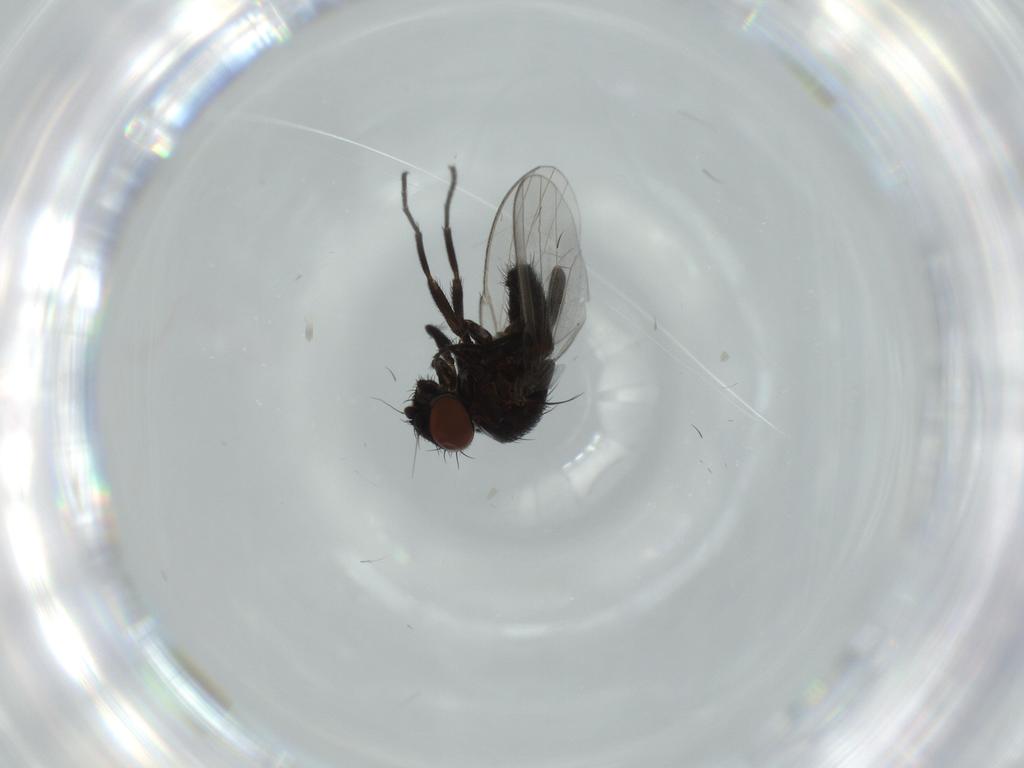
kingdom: Animalia
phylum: Arthropoda
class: Insecta
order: Diptera
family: Milichiidae
